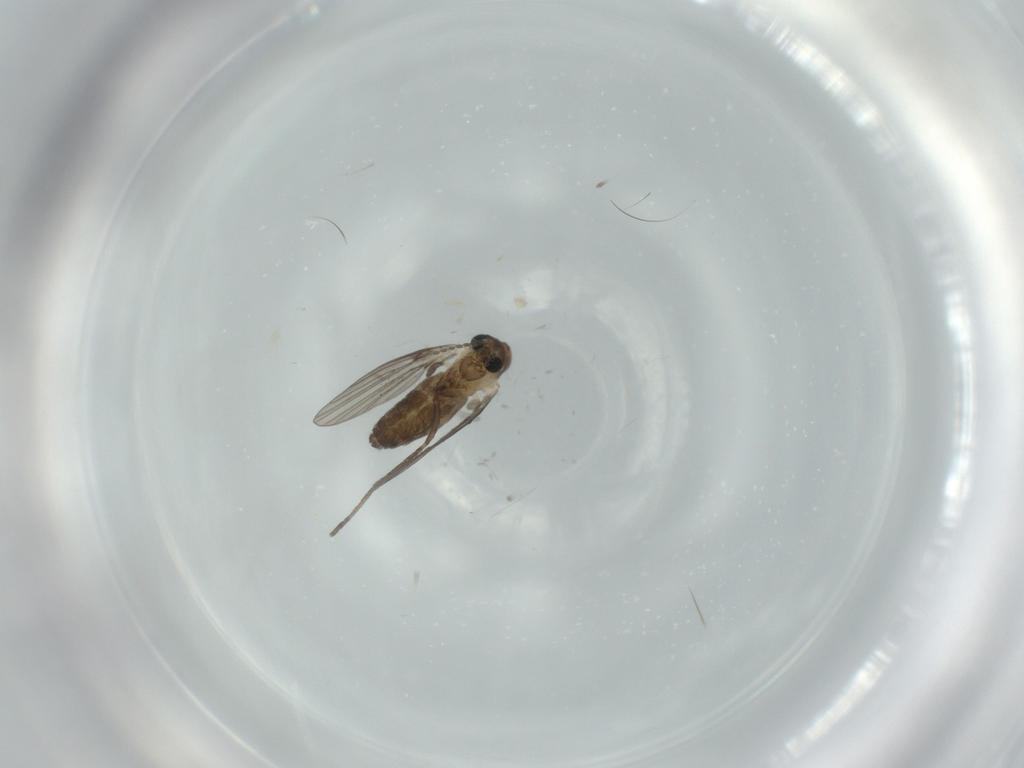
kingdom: Animalia
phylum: Arthropoda
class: Insecta
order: Diptera
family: Psychodidae
